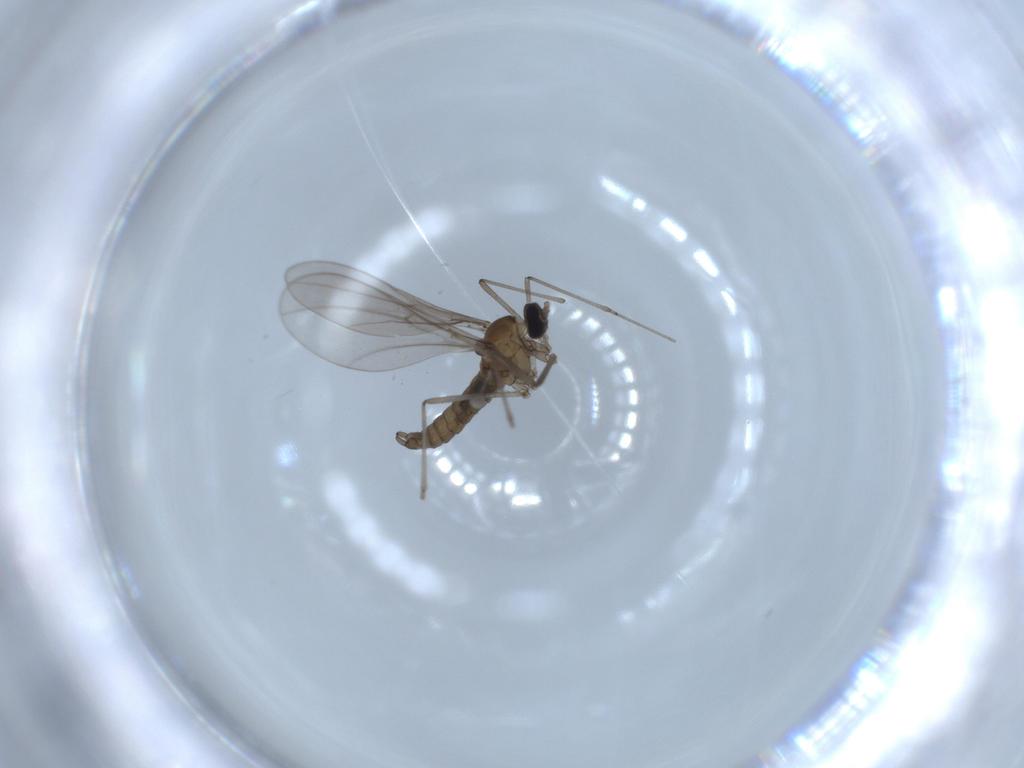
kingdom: Animalia
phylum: Arthropoda
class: Insecta
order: Diptera
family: Cecidomyiidae
